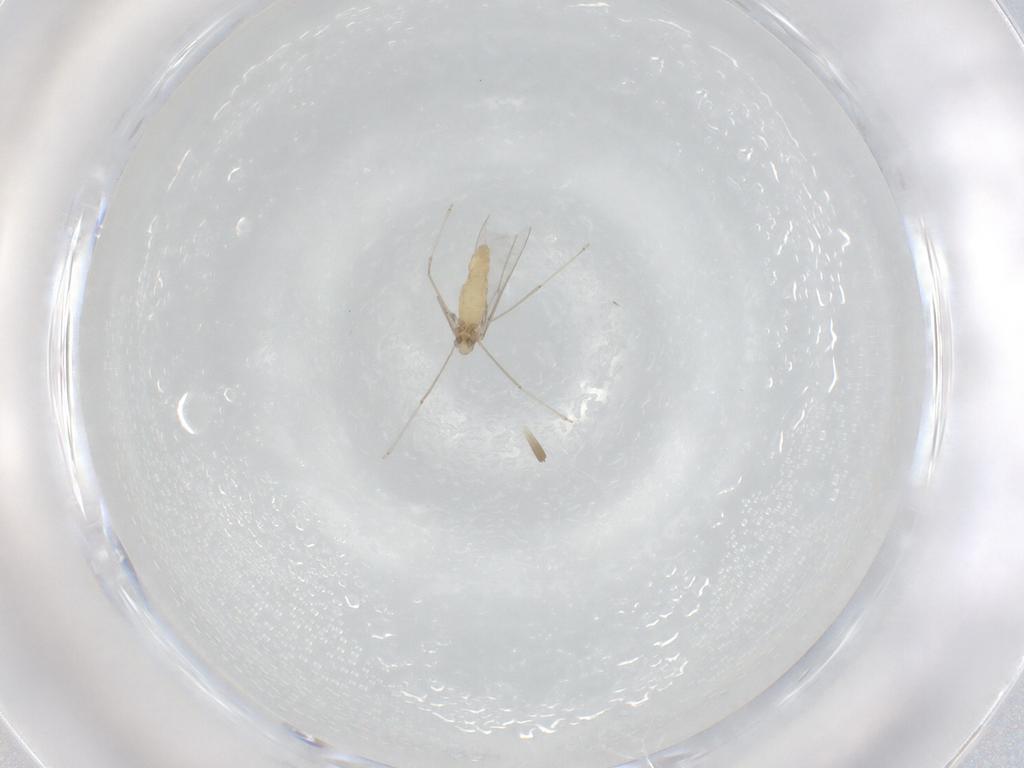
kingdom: Animalia
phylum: Arthropoda
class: Insecta
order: Diptera
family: Cecidomyiidae
